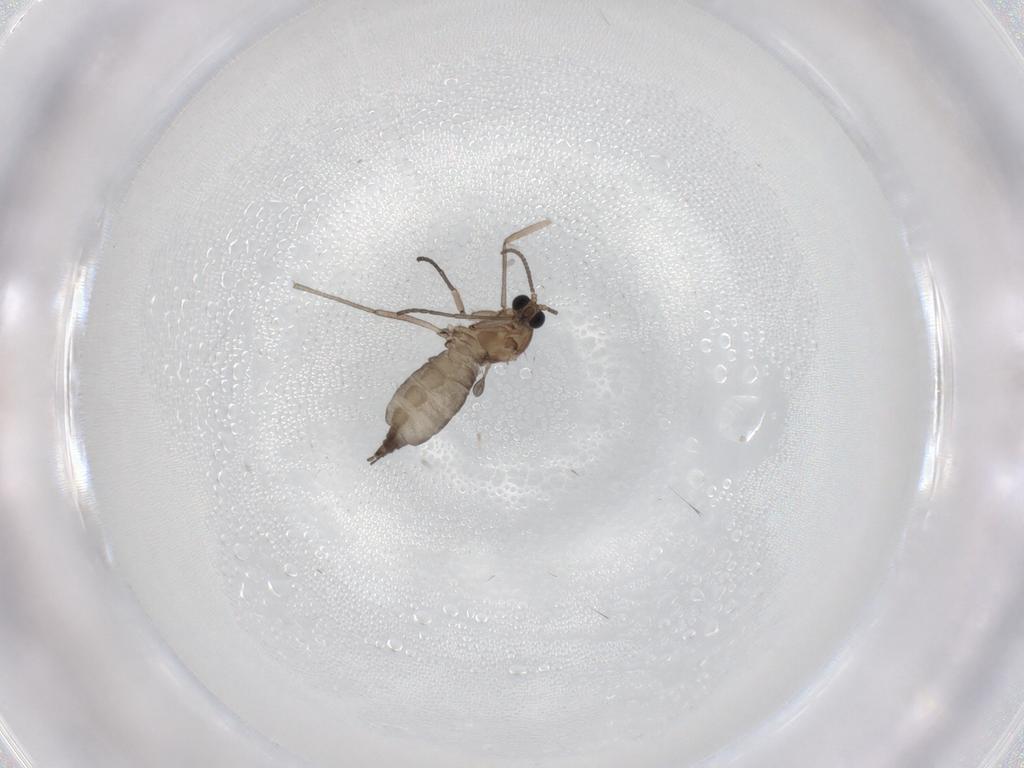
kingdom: Animalia
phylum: Arthropoda
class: Insecta
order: Diptera
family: Sciaridae
